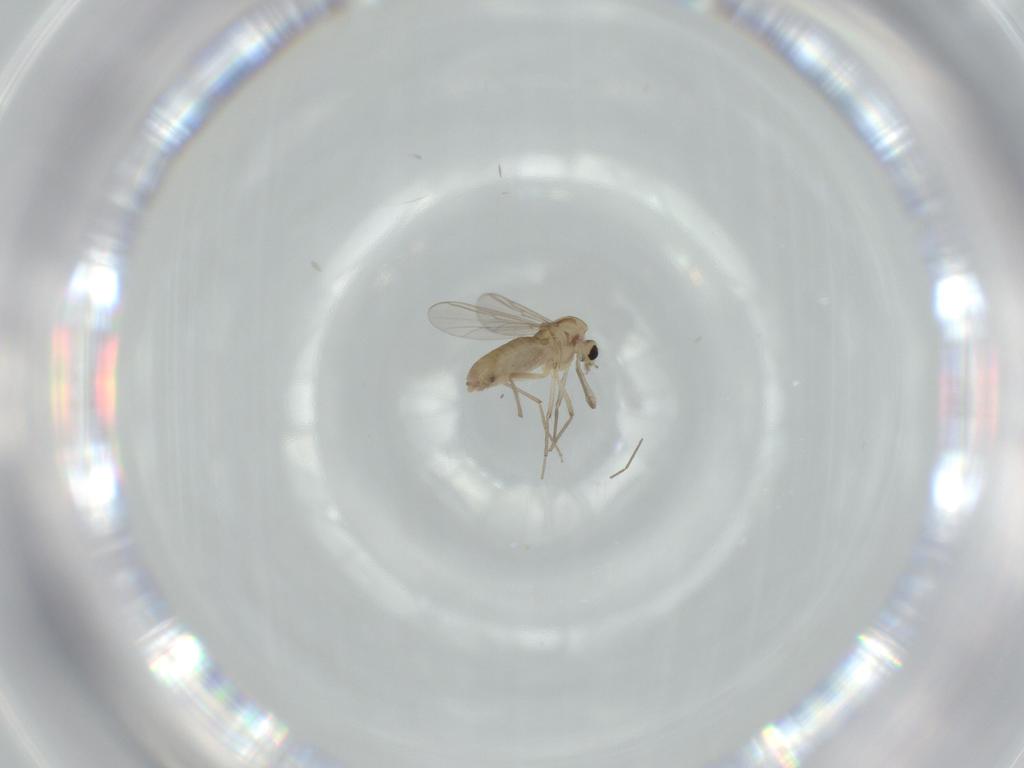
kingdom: Animalia
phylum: Arthropoda
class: Insecta
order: Diptera
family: Chironomidae
